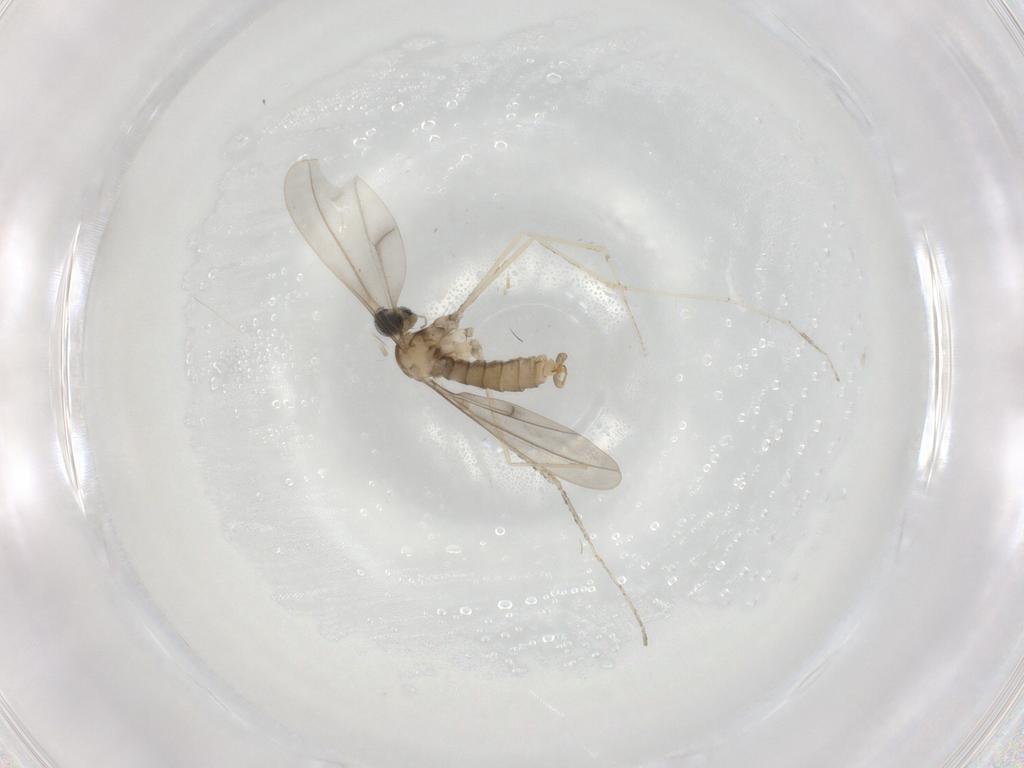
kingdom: Animalia
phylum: Arthropoda
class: Insecta
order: Diptera
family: Cecidomyiidae
